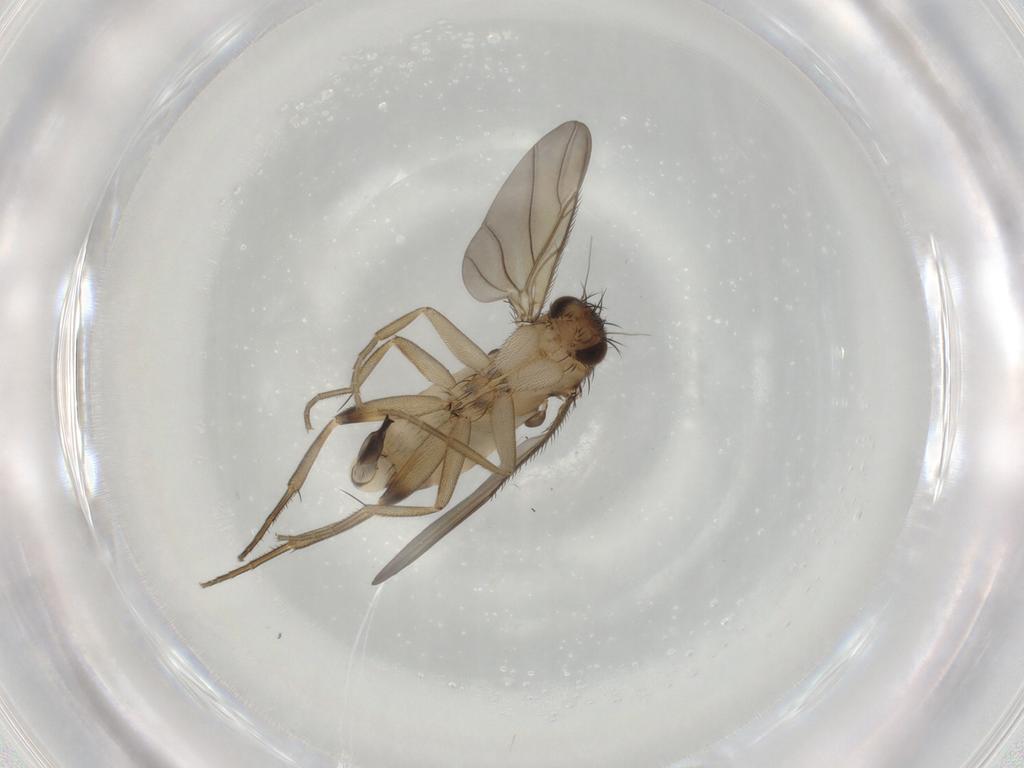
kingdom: Animalia
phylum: Arthropoda
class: Insecta
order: Diptera
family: Phoridae
